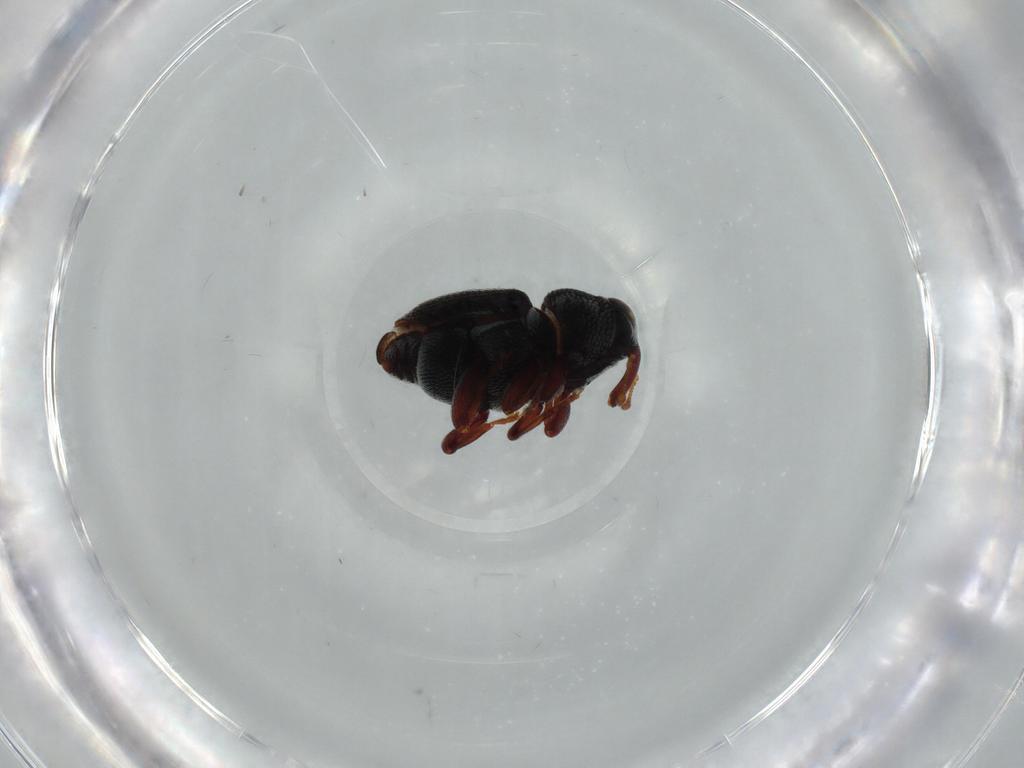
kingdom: Animalia
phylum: Arthropoda
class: Insecta
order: Coleoptera
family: Curculionidae
